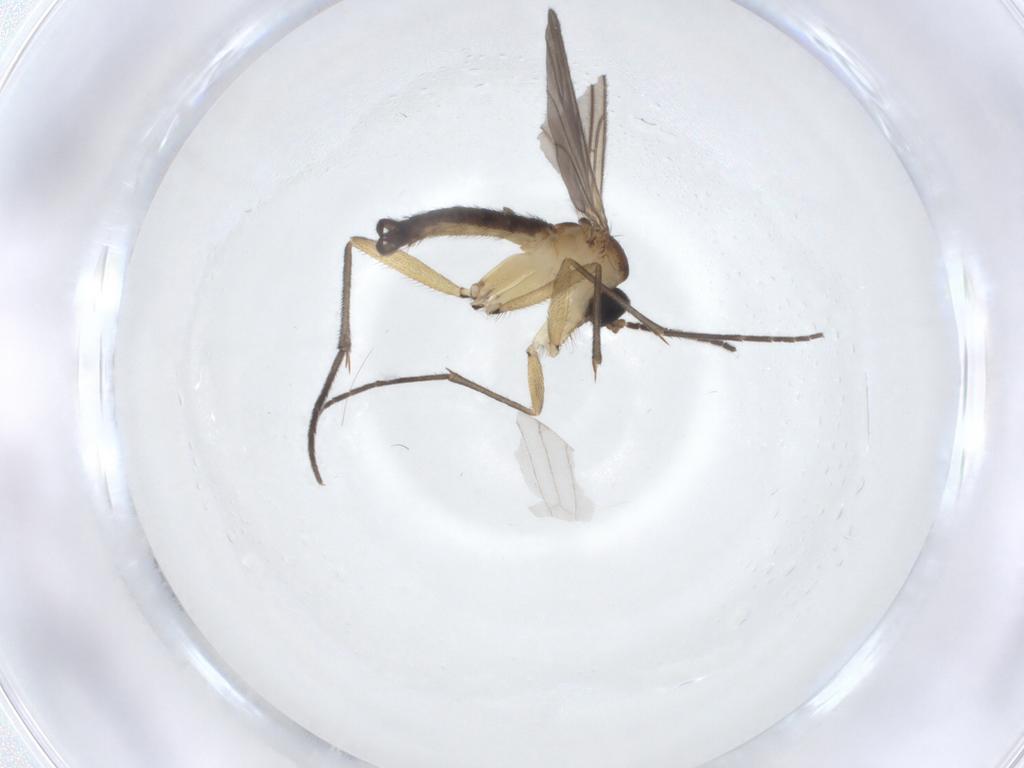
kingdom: Animalia
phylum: Arthropoda
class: Insecta
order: Diptera
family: Sciaridae
